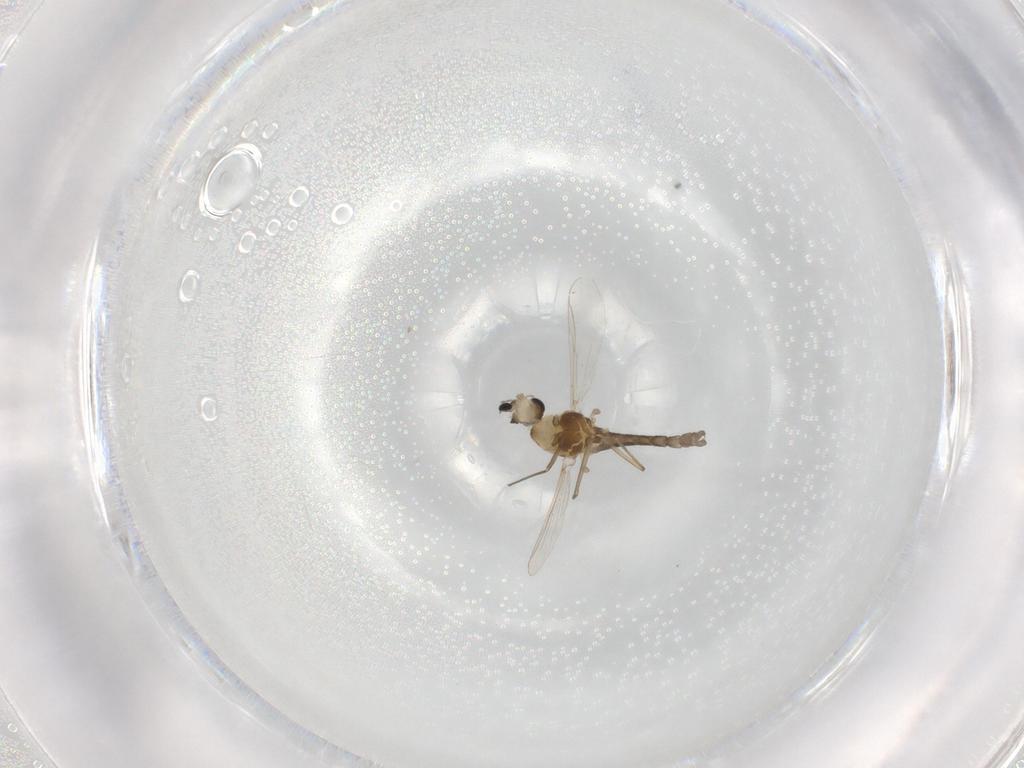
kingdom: Animalia
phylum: Arthropoda
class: Insecta
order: Diptera
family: Chironomidae
